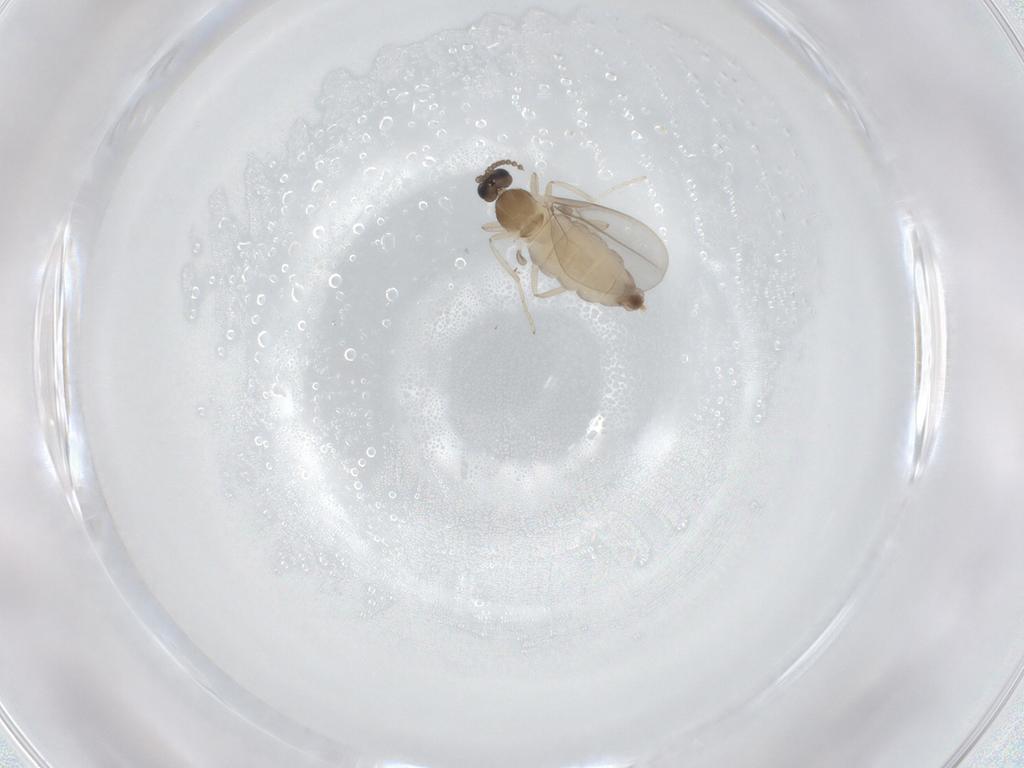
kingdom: Animalia
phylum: Arthropoda
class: Insecta
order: Diptera
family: Cecidomyiidae
